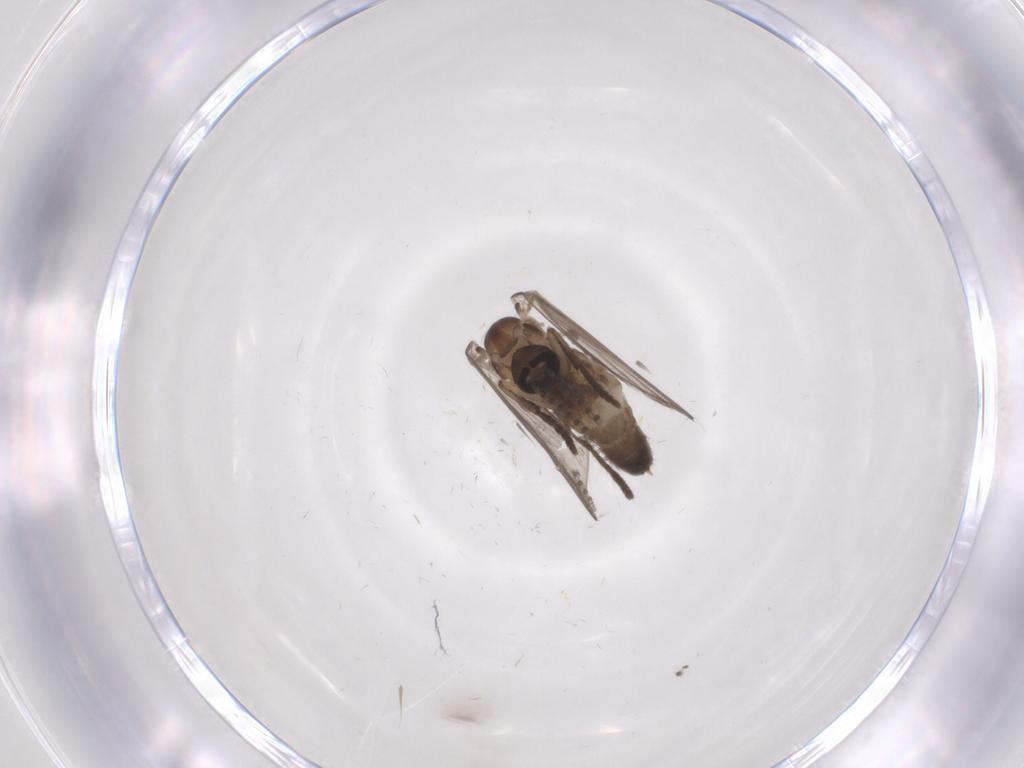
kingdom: Animalia
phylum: Arthropoda
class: Insecta
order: Diptera
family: Psychodidae
